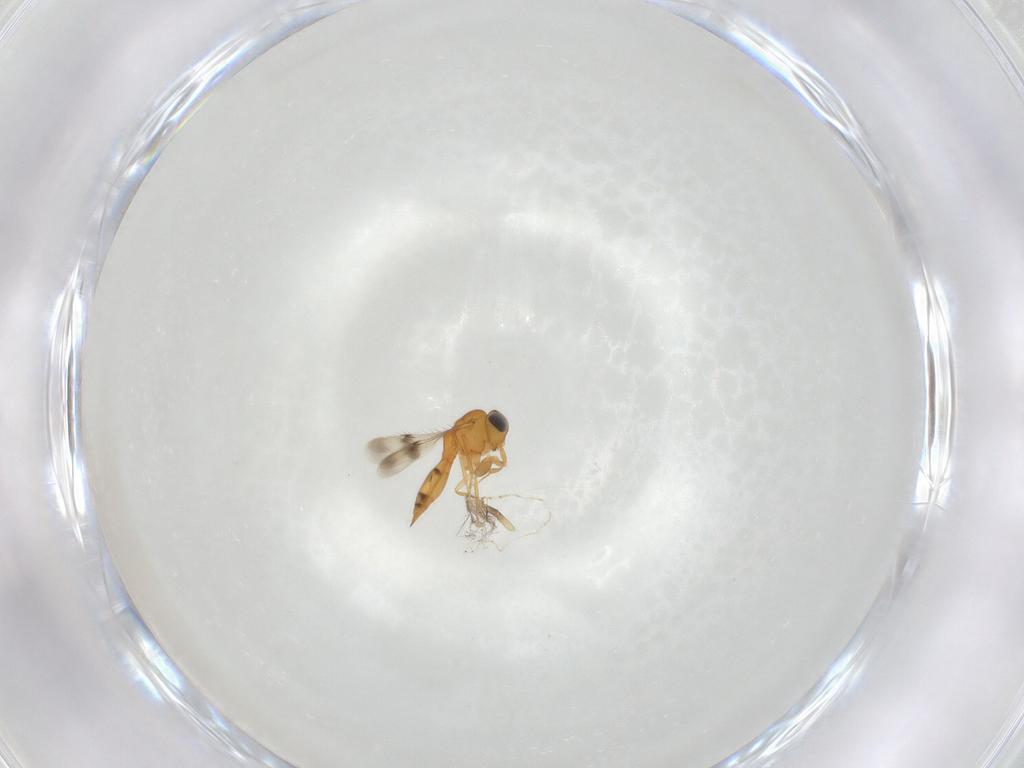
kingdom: Animalia
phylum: Arthropoda
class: Insecta
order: Hymenoptera
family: Scelionidae
